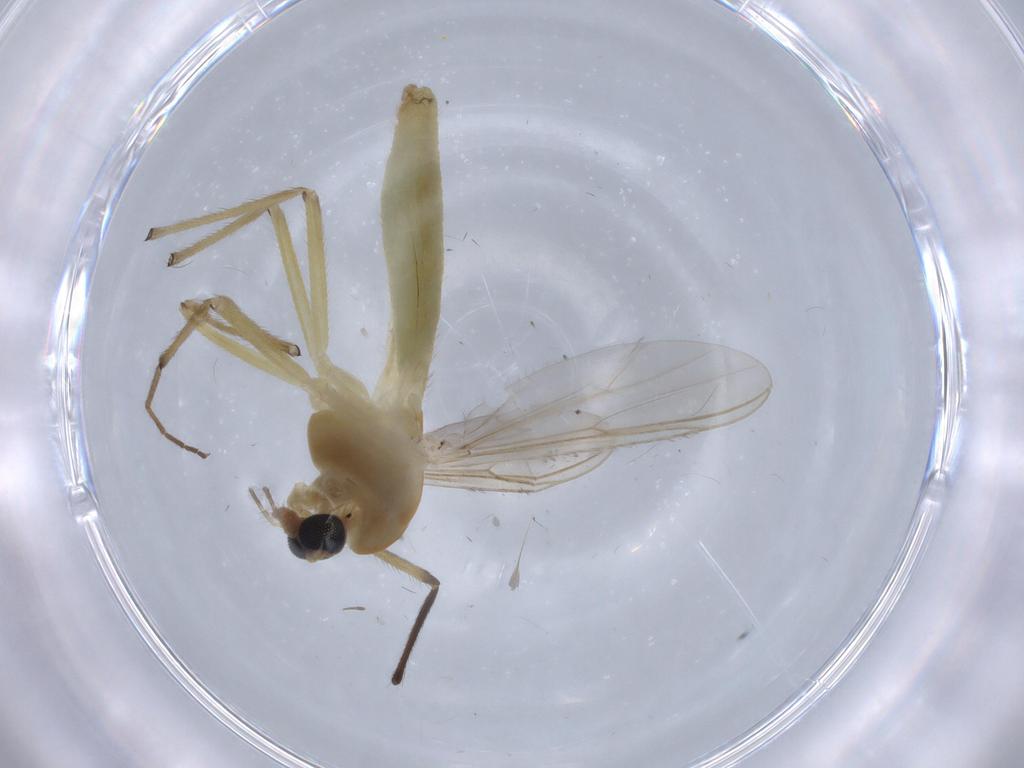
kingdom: Animalia
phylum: Arthropoda
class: Insecta
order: Diptera
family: Chironomidae
